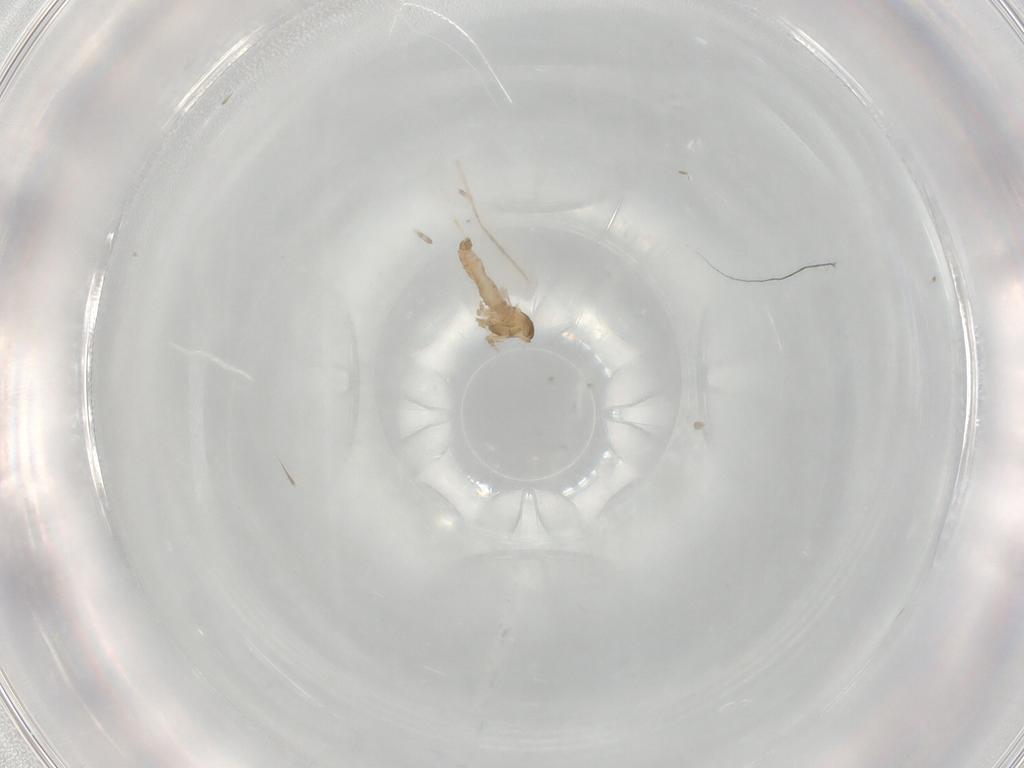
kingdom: Animalia
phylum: Arthropoda
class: Insecta
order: Diptera
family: Cecidomyiidae
